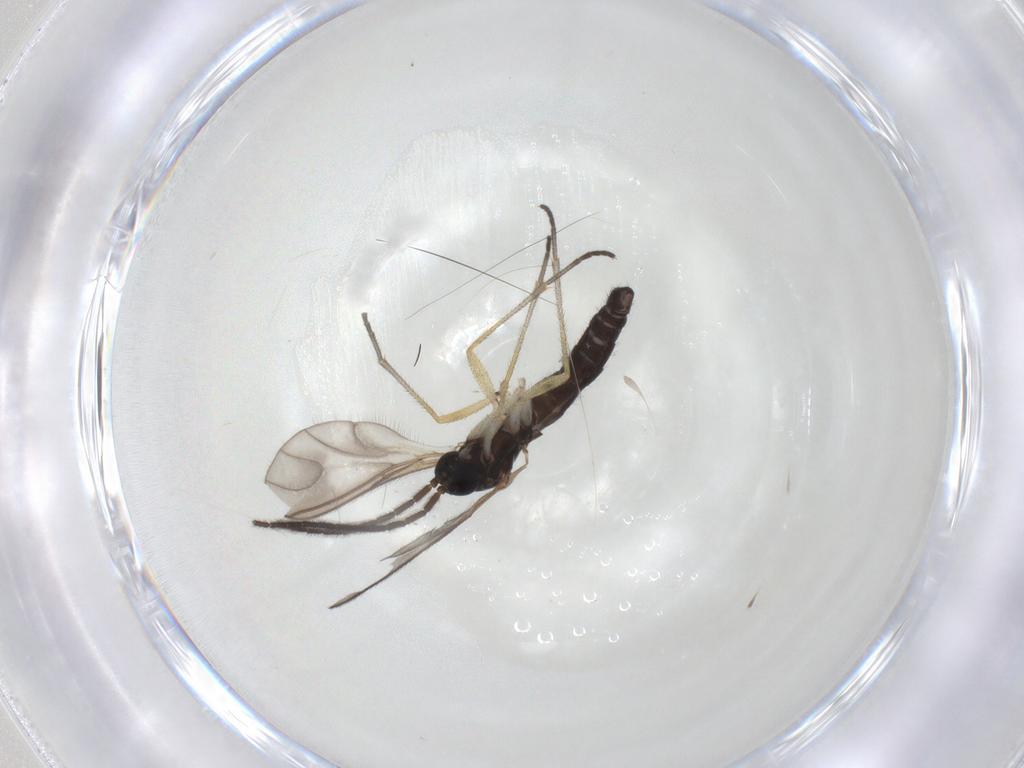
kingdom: Animalia
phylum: Arthropoda
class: Insecta
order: Diptera
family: Sciaridae
